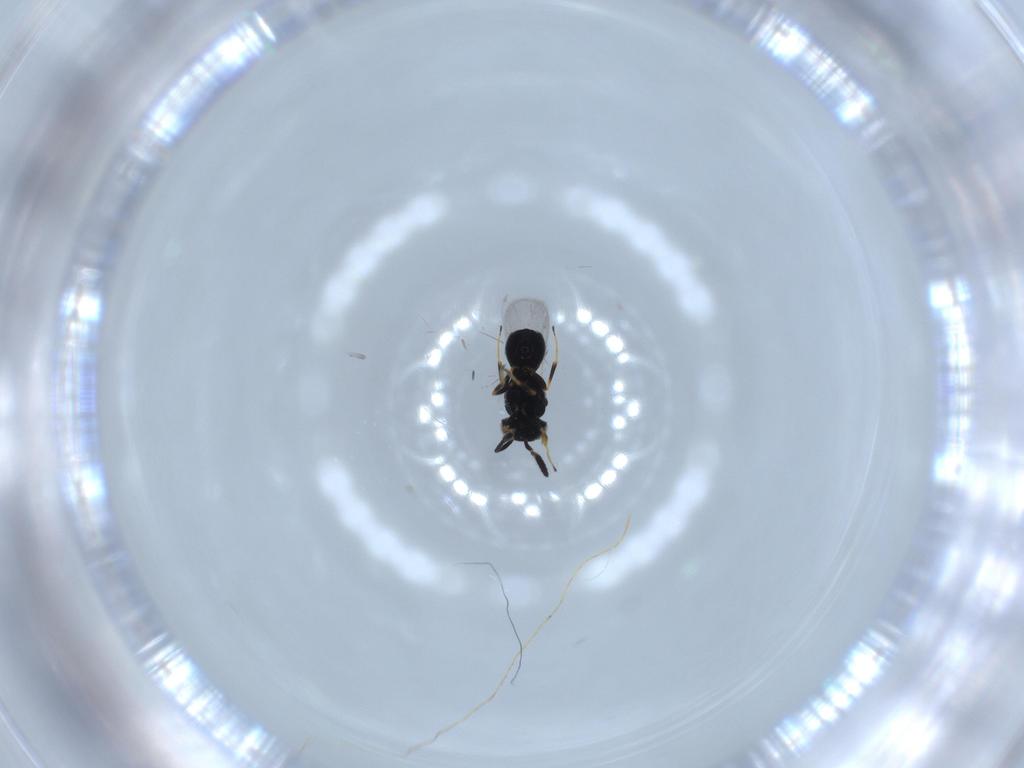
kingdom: Animalia
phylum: Arthropoda
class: Insecta
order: Hymenoptera
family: Scelionidae
